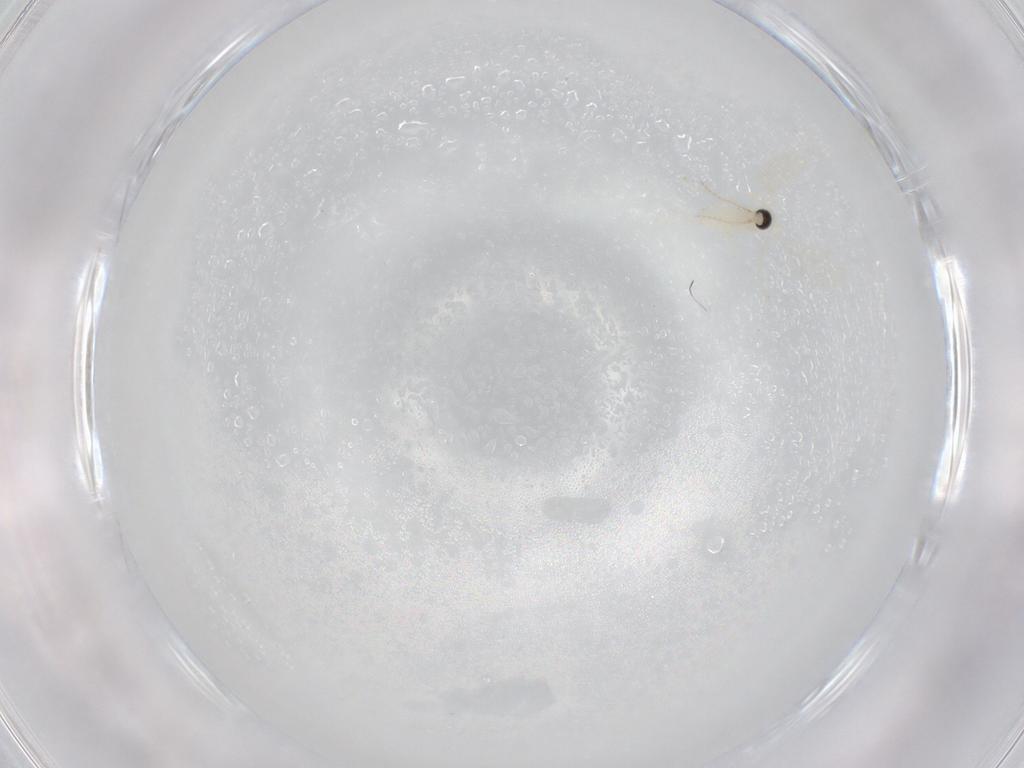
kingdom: Animalia
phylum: Arthropoda
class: Insecta
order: Diptera
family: Cecidomyiidae
